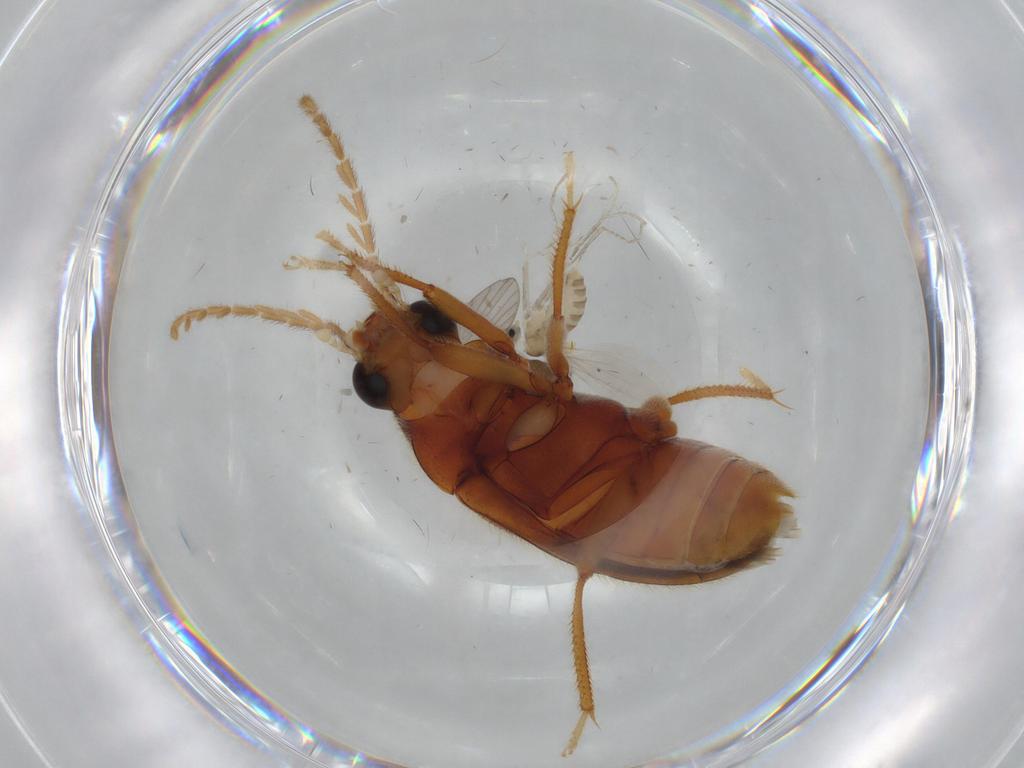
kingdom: Animalia
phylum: Arthropoda
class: Insecta
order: Coleoptera
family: Ptilodactylidae
